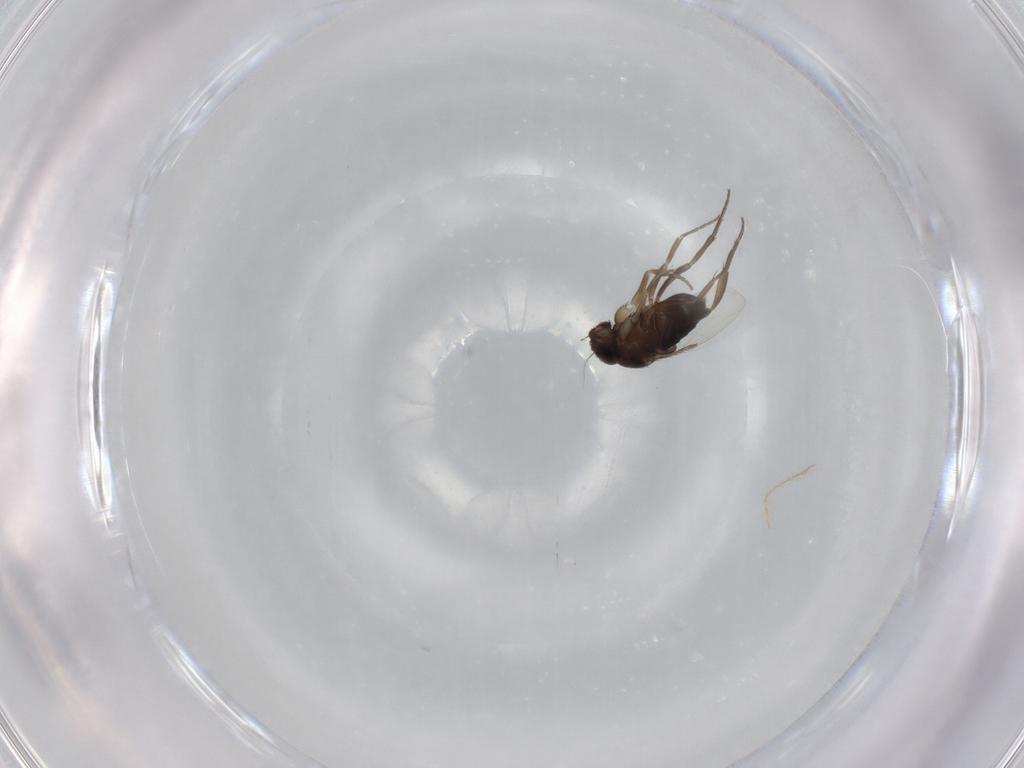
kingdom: Animalia
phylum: Arthropoda
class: Insecta
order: Diptera
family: Phoridae
